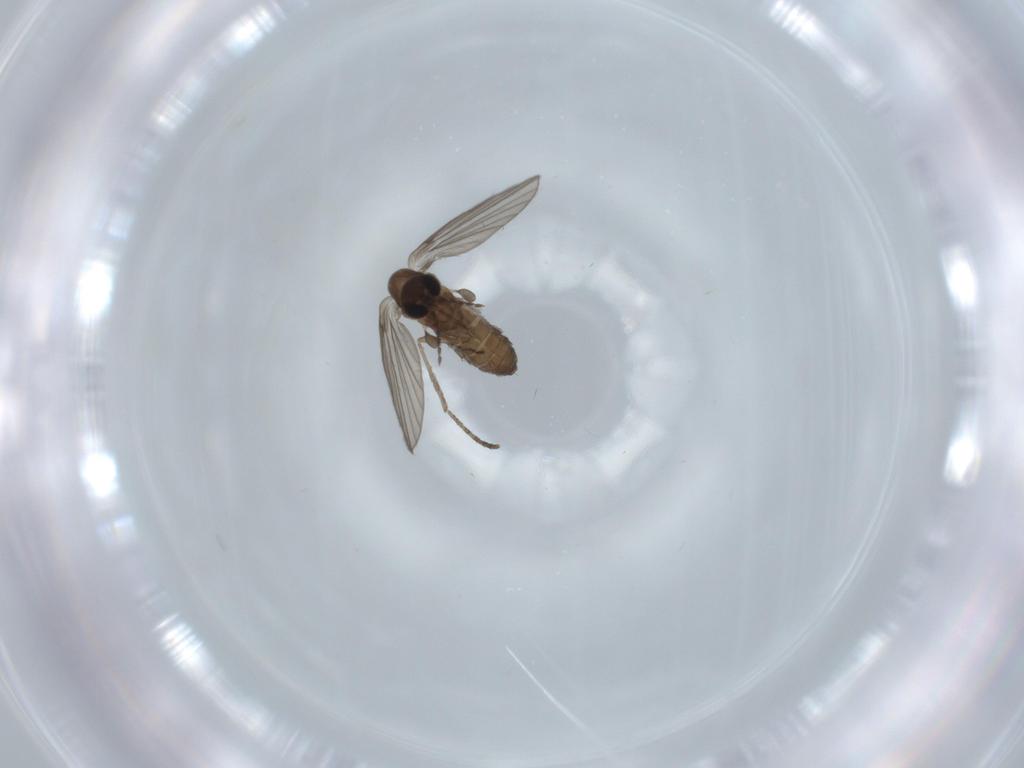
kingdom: Animalia
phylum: Arthropoda
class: Insecta
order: Diptera
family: Psychodidae
